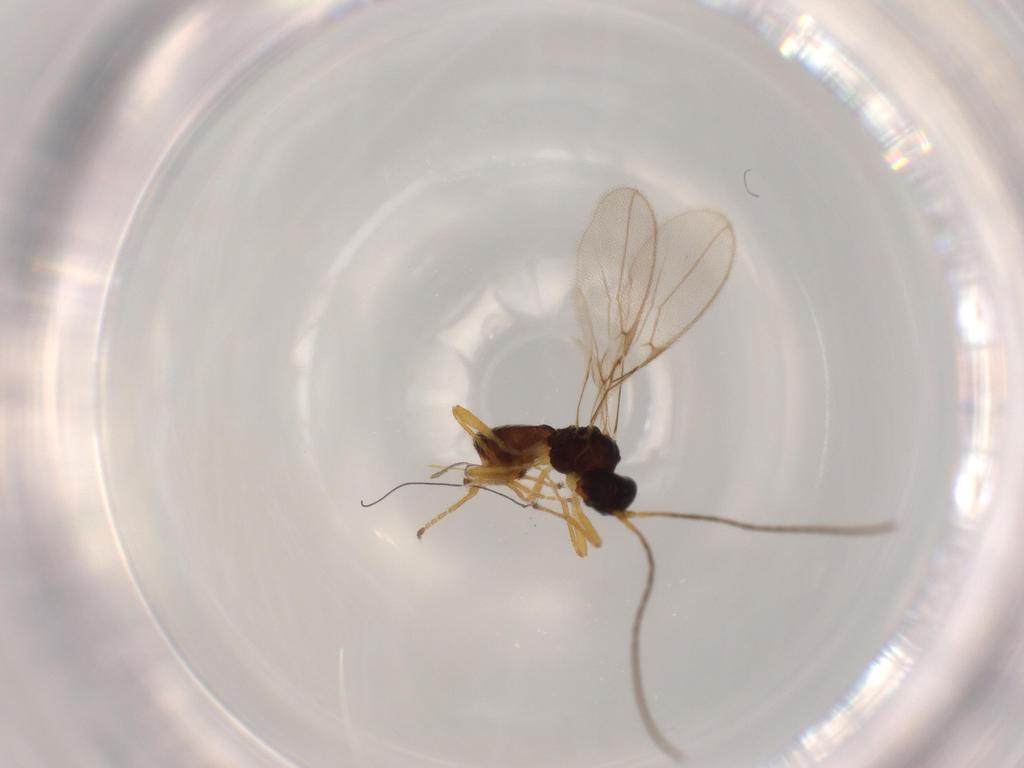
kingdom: Animalia
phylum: Arthropoda
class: Insecta
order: Hymenoptera
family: Braconidae
